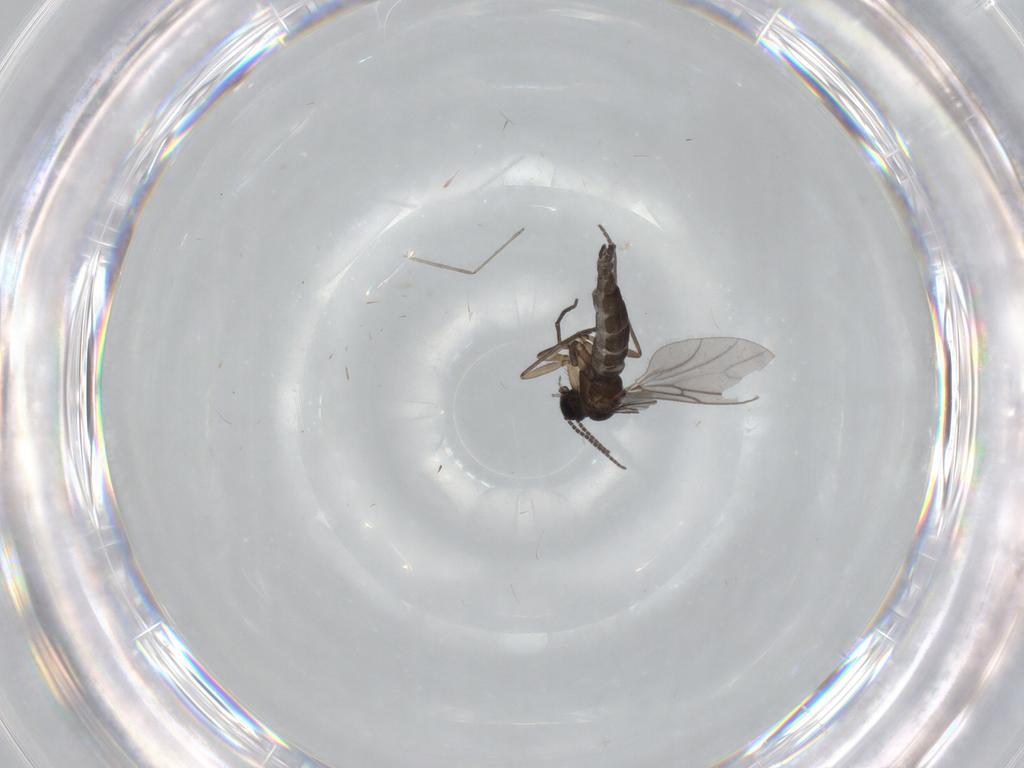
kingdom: Animalia
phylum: Arthropoda
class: Insecta
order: Diptera
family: Sciaridae
